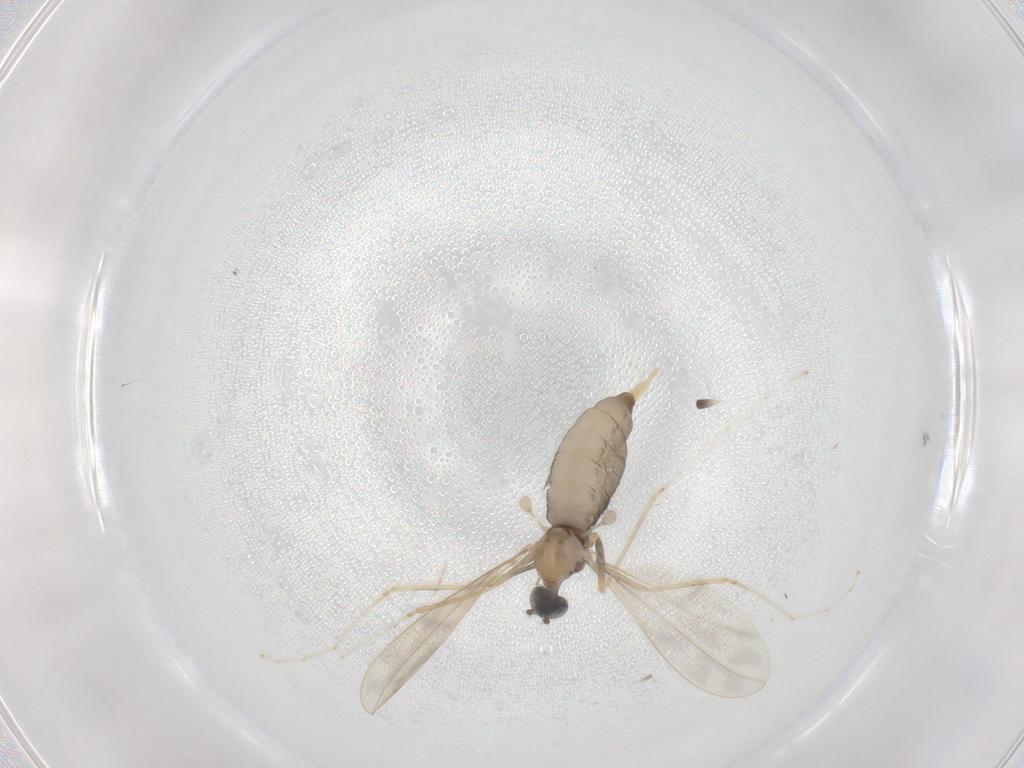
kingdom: Animalia
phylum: Arthropoda
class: Insecta
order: Diptera
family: Cecidomyiidae
